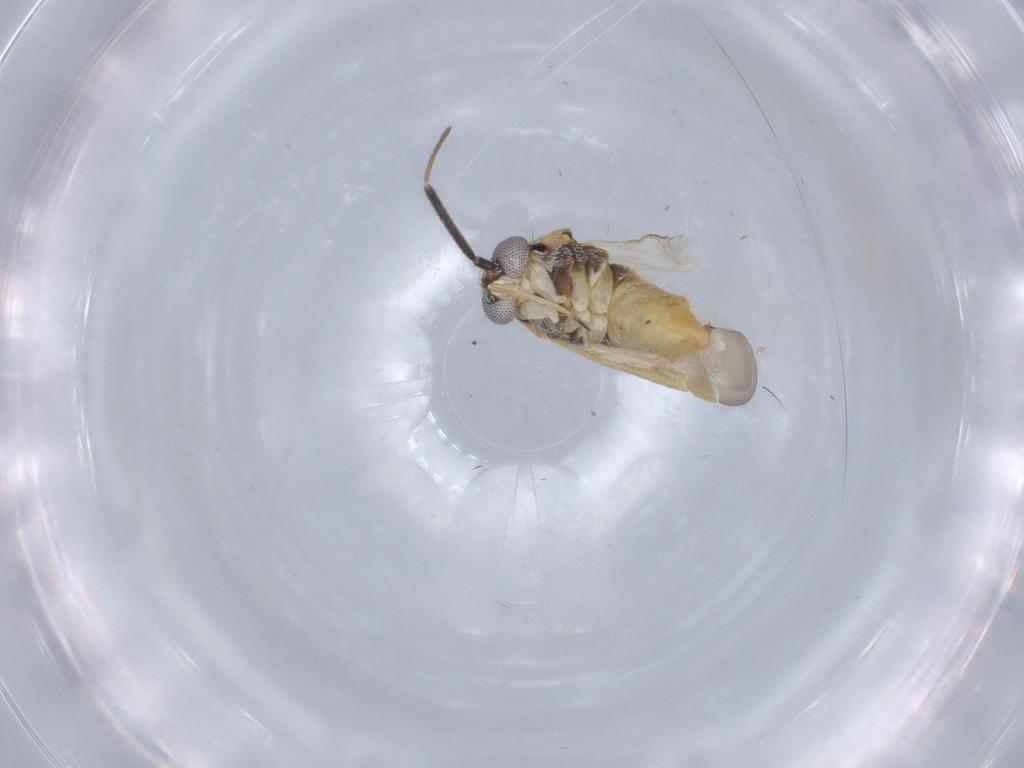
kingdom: Animalia
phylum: Arthropoda
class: Insecta
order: Hemiptera
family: Miridae
